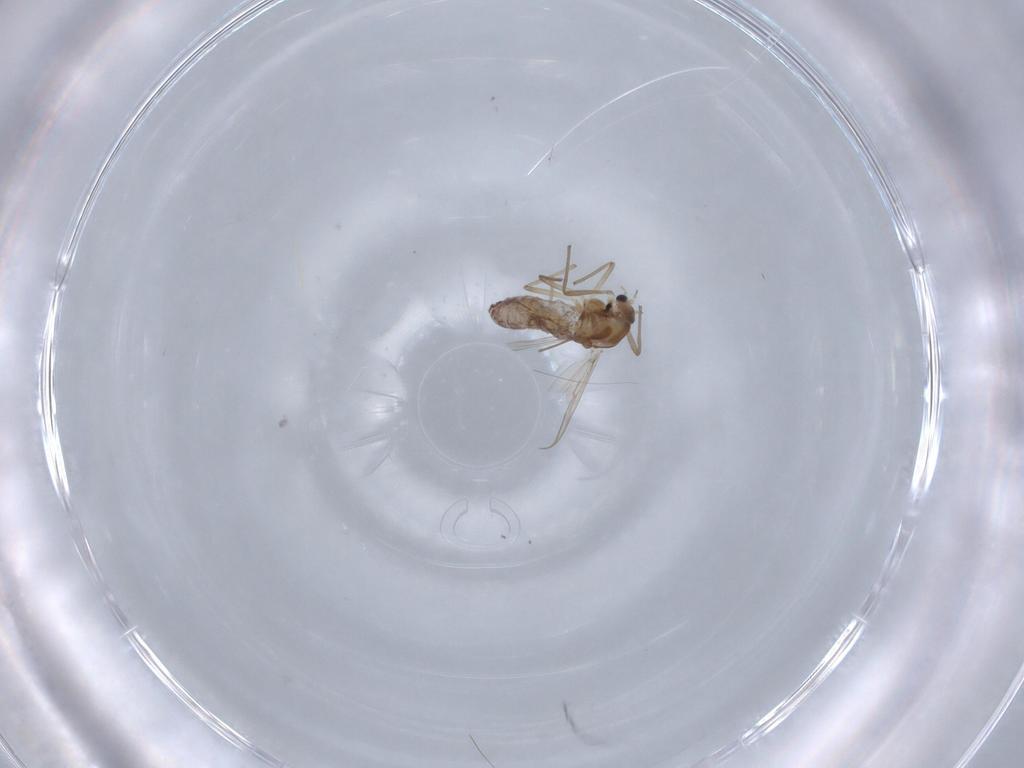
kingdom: Animalia
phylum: Arthropoda
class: Insecta
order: Diptera
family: Chironomidae
